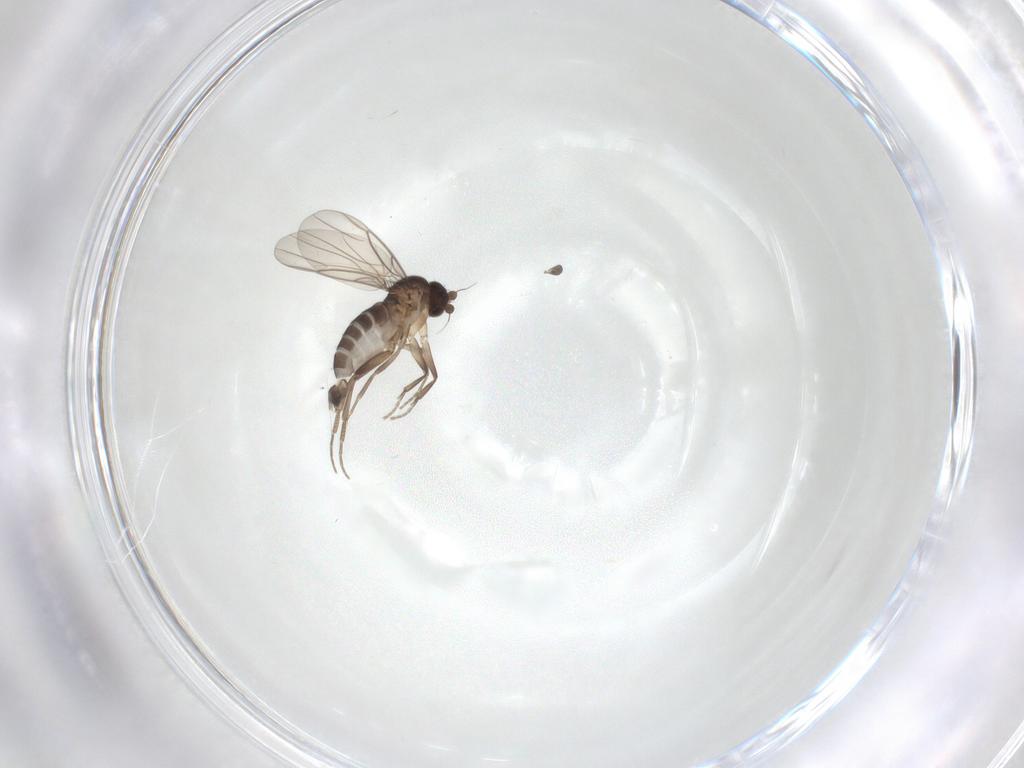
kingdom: Animalia
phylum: Arthropoda
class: Insecta
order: Diptera
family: Phoridae
